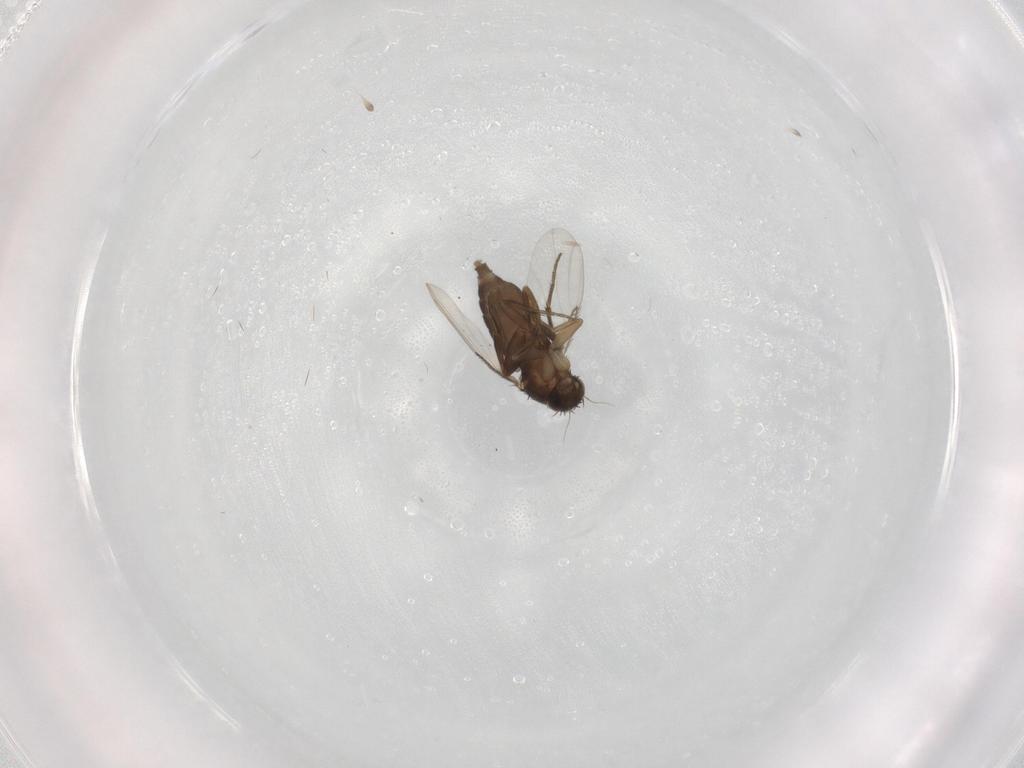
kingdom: Animalia
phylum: Arthropoda
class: Insecta
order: Diptera
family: Phoridae
